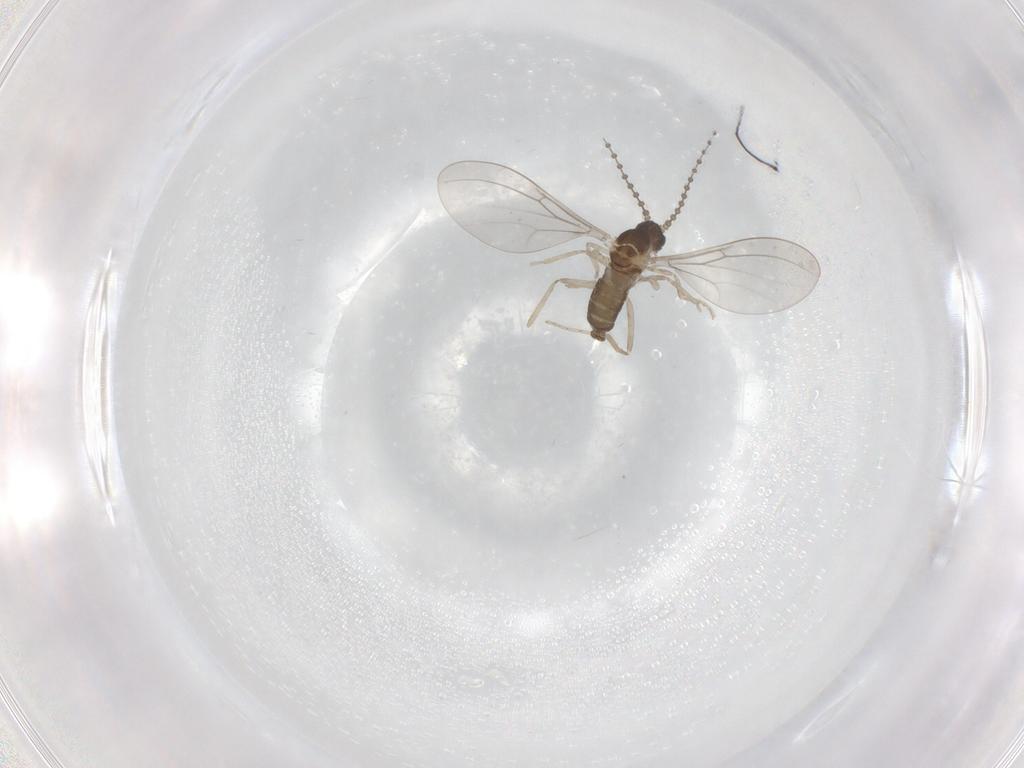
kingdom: Animalia
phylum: Arthropoda
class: Insecta
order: Diptera
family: Cecidomyiidae
